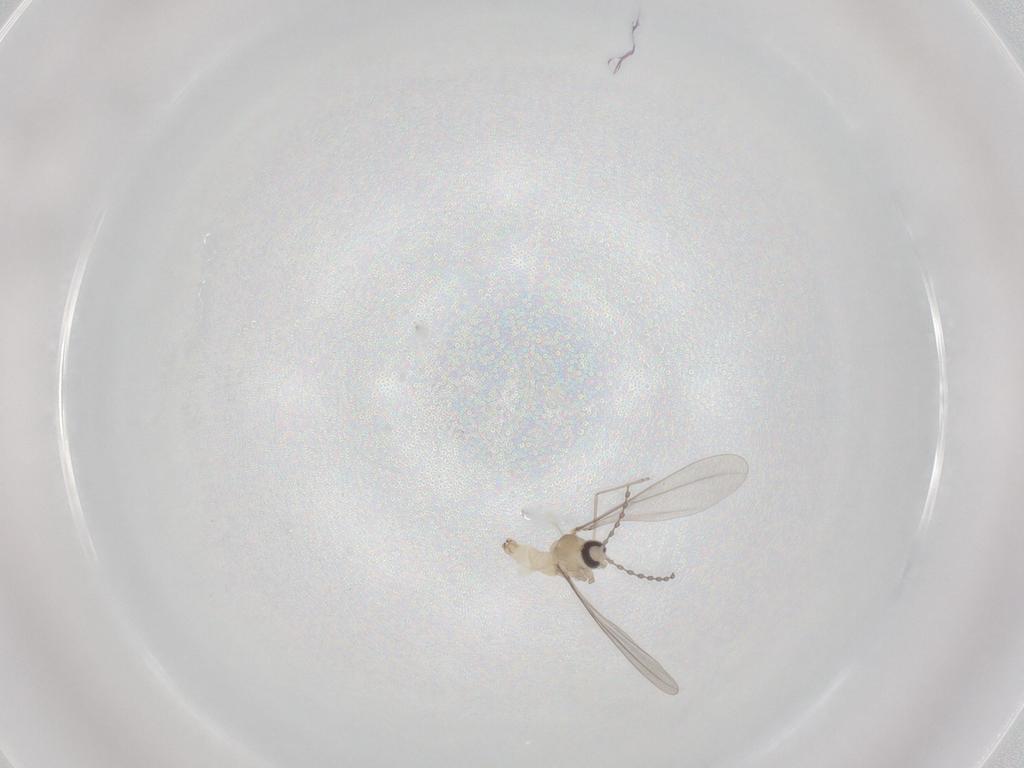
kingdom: Animalia
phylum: Arthropoda
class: Insecta
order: Diptera
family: Cecidomyiidae
